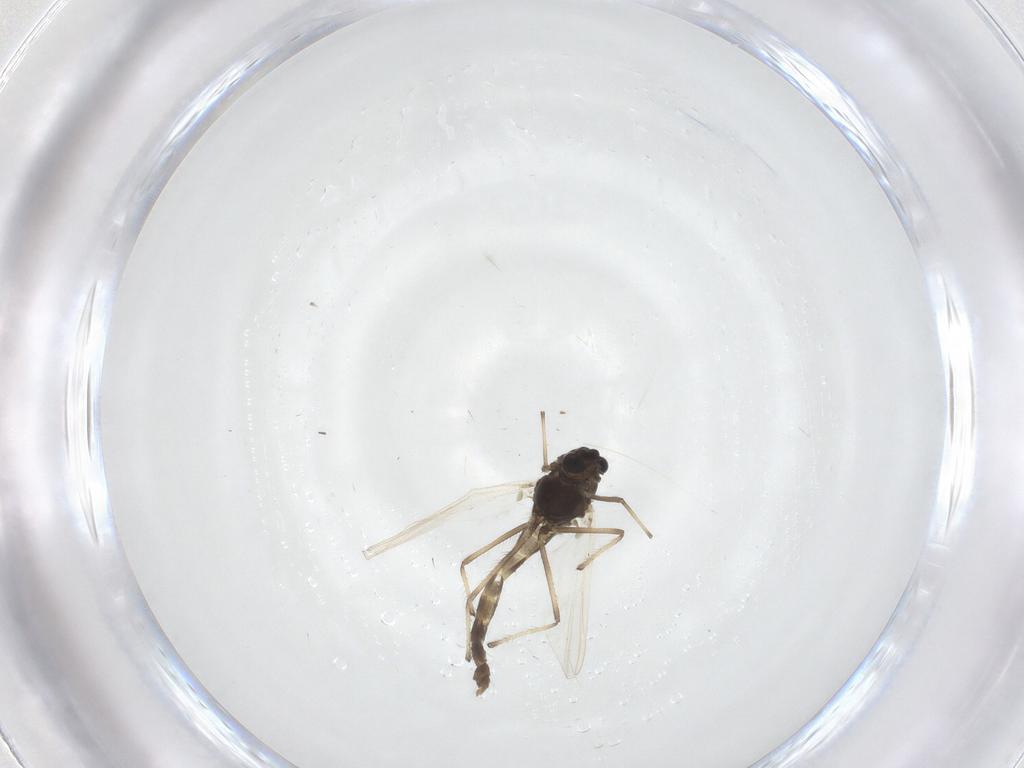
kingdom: Animalia
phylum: Arthropoda
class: Insecta
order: Diptera
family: Chironomidae
